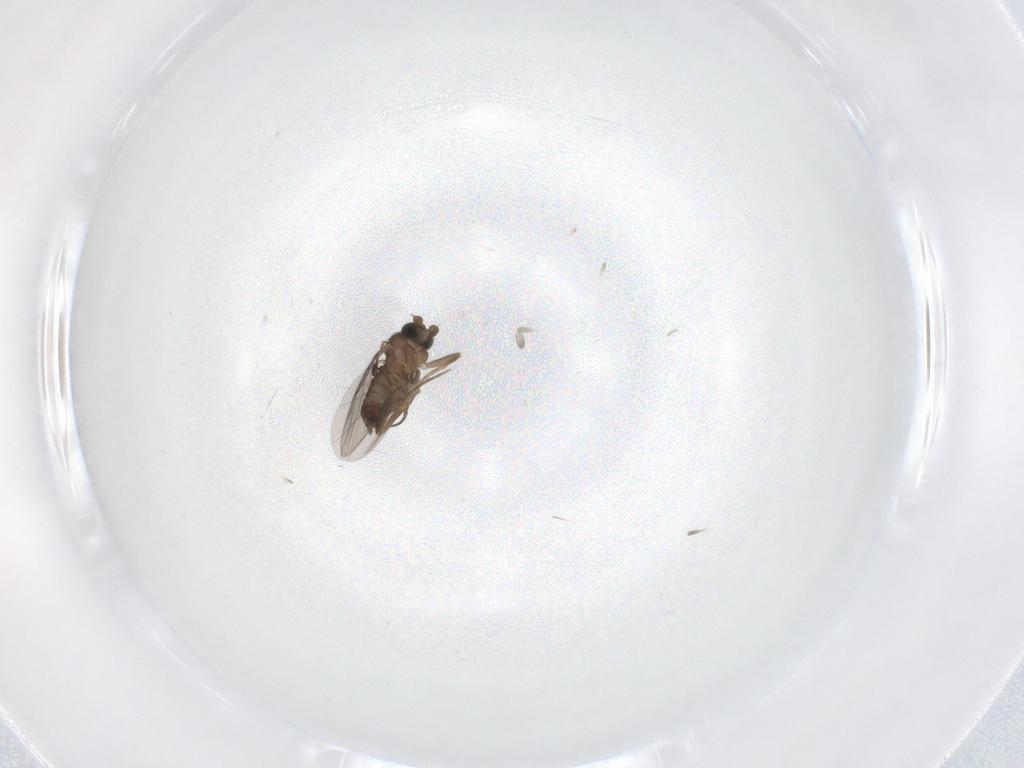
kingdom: Animalia
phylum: Arthropoda
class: Insecta
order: Diptera
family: Phoridae
